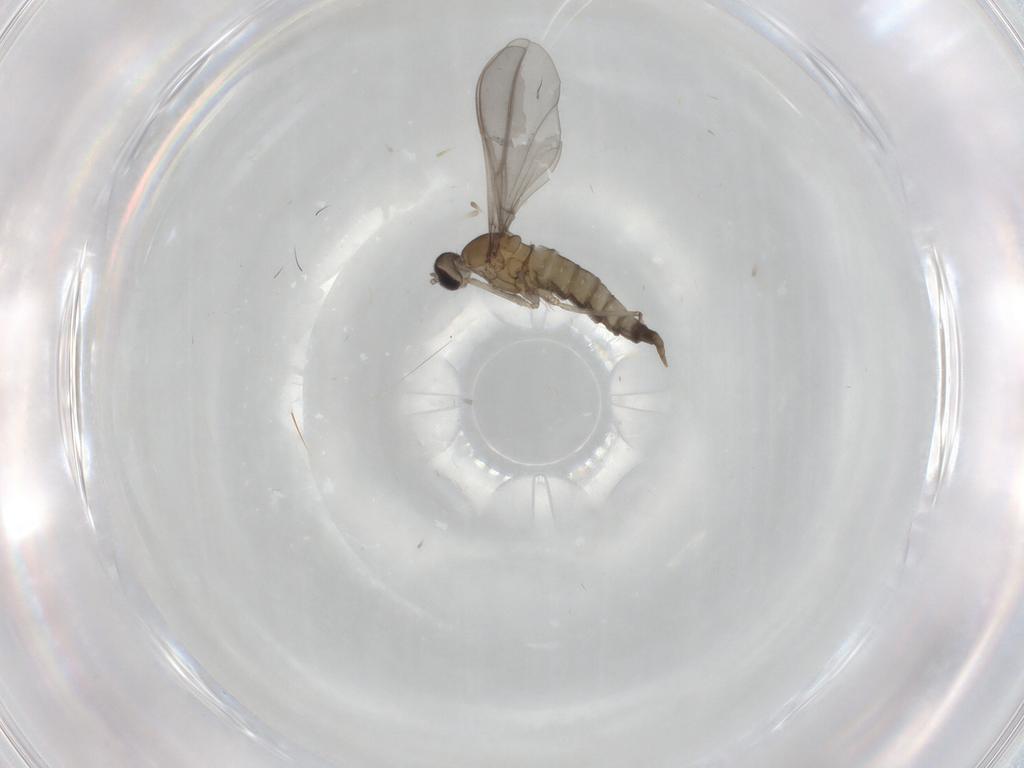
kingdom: Animalia
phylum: Arthropoda
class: Insecta
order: Diptera
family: Cecidomyiidae
